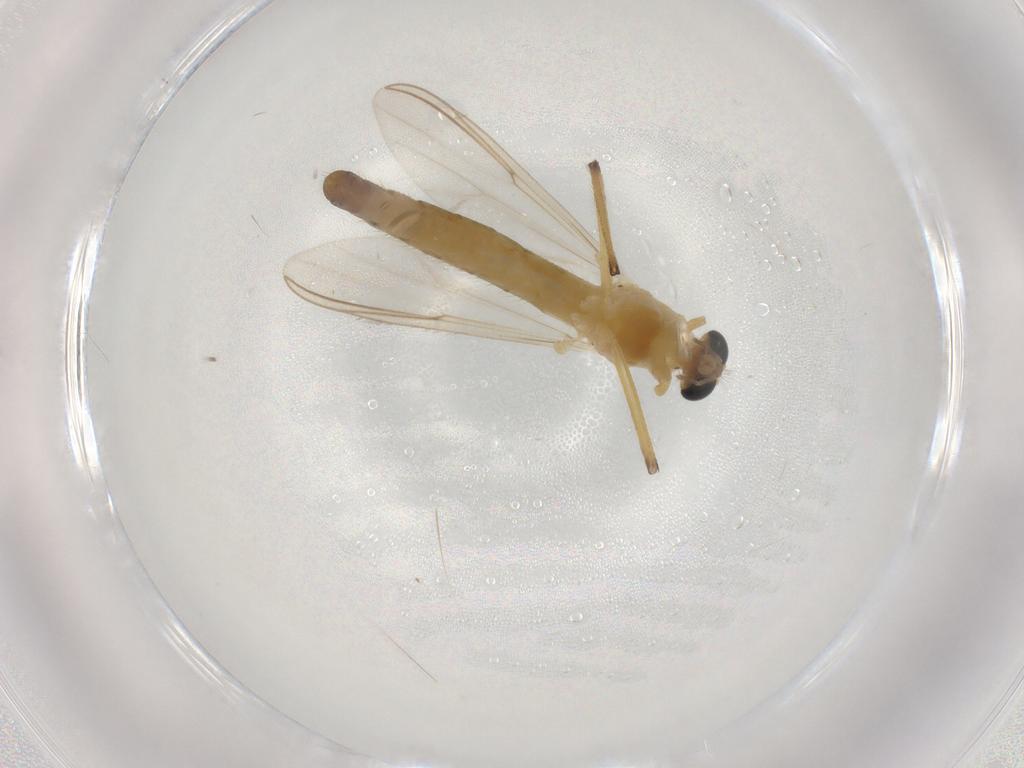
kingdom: Animalia
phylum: Arthropoda
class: Insecta
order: Diptera
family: Chironomidae
